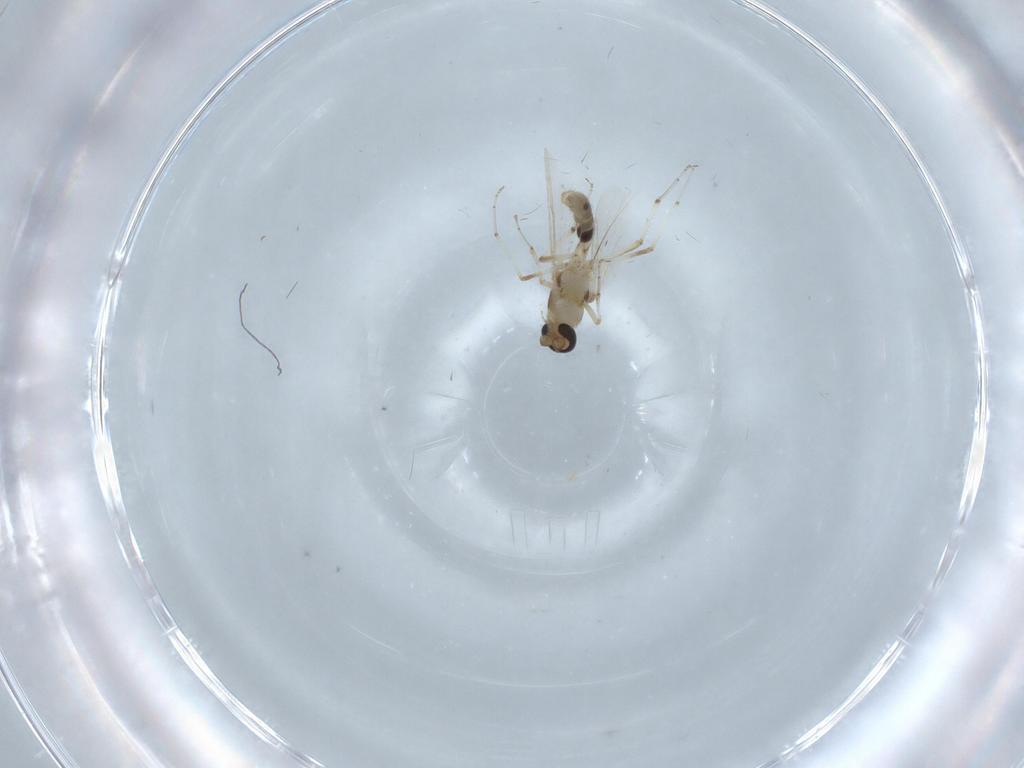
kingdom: Animalia
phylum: Arthropoda
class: Insecta
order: Diptera
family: Ceratopogonidae
